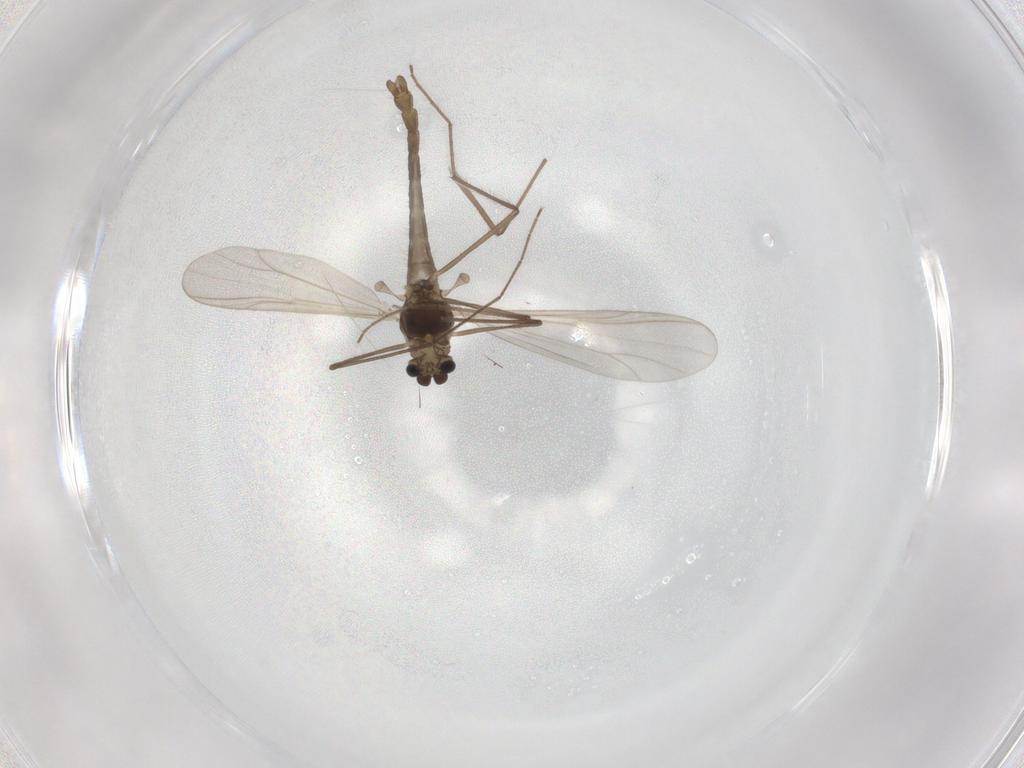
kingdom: Animalia
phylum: Arthropoda
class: Insecta
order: Diptera
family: Chironomidae
